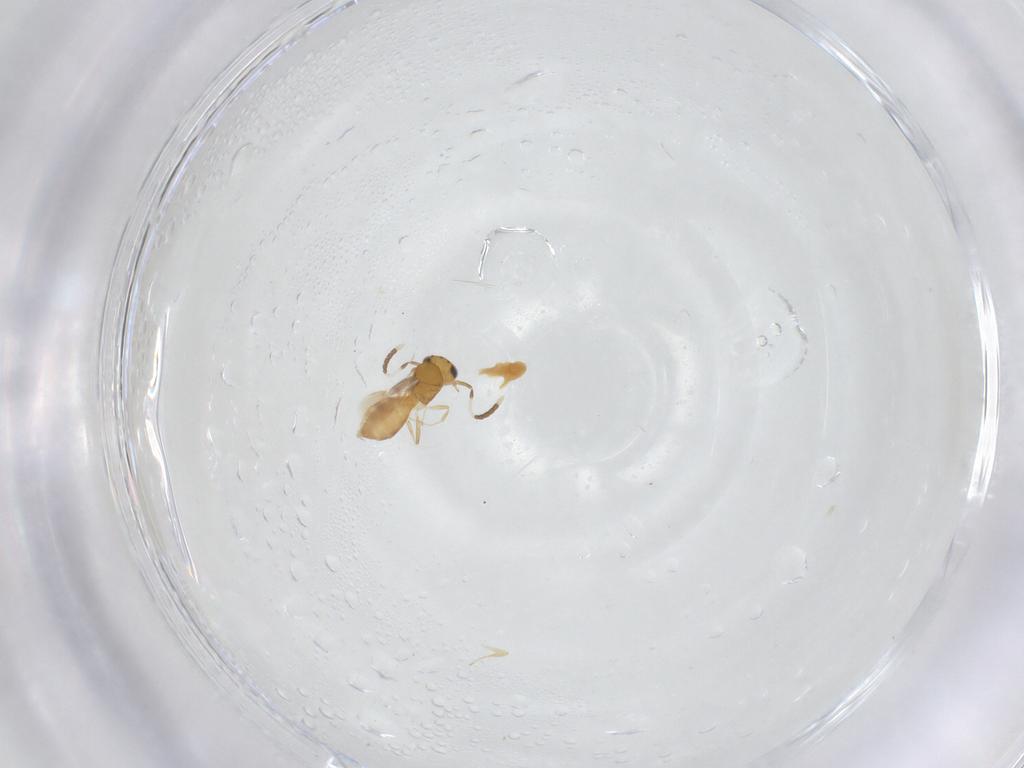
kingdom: Animalia
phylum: Arthropoda
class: Insecta
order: Hymenoptera
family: Scelionidae
